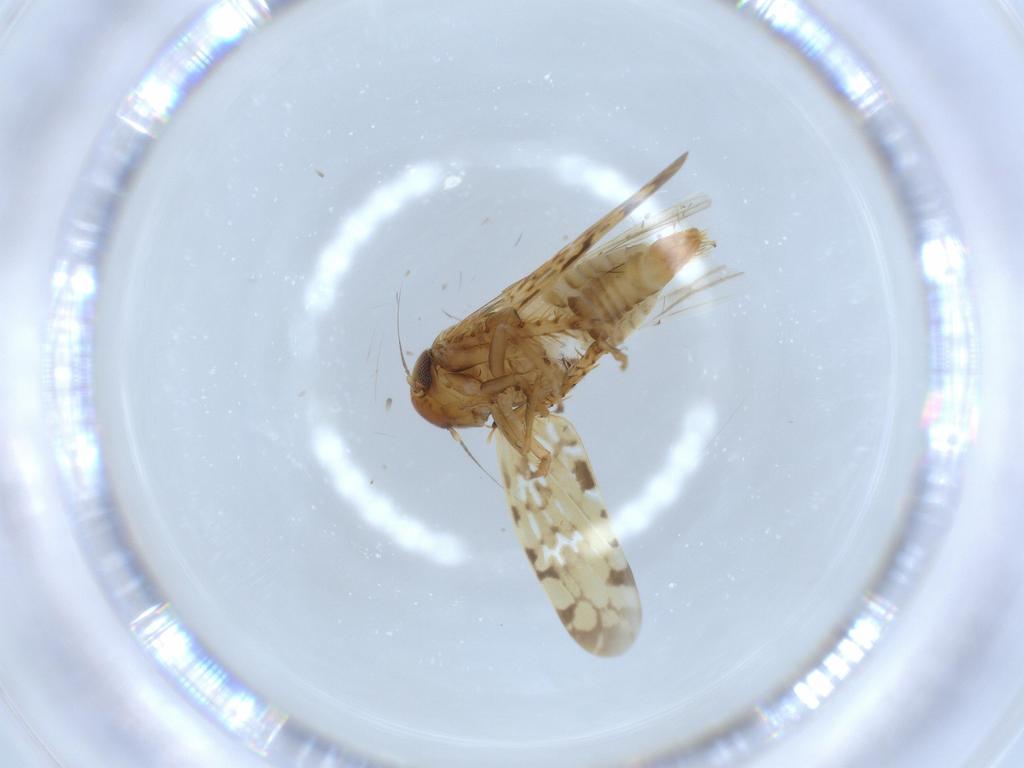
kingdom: Animalia
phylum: Arthropoda
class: Insecta
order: Hemiptera
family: Cicadellidae
